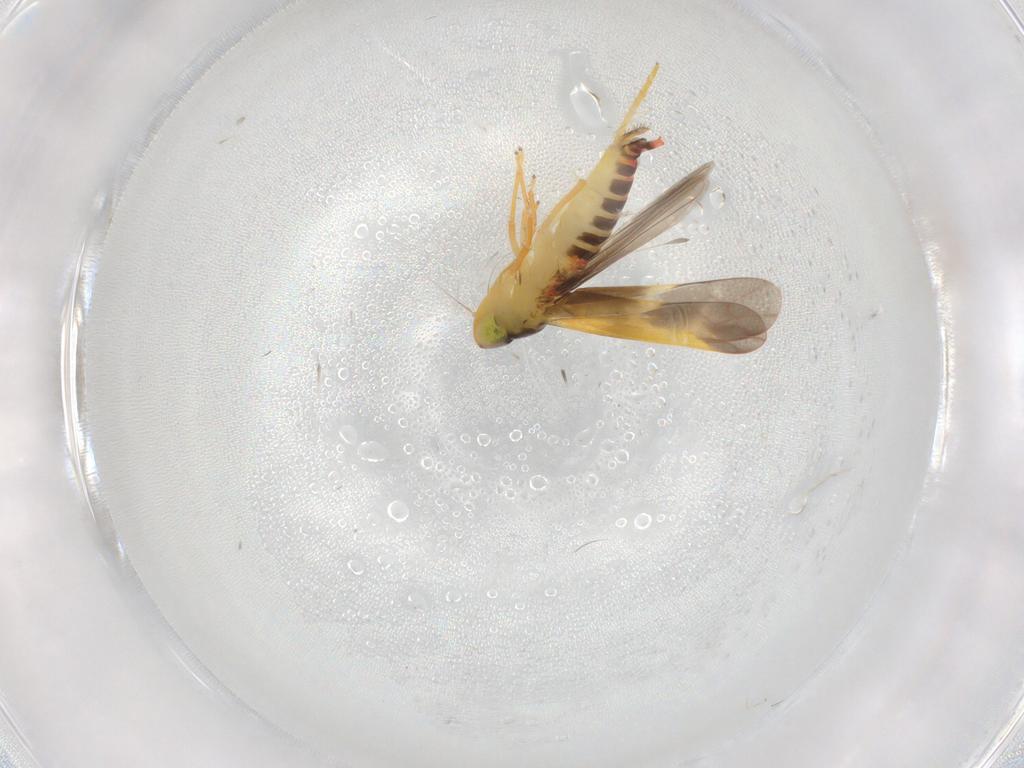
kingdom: Animalia
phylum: Arthropoda
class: Insecta
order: Hemiptera
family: Cicadellidae
